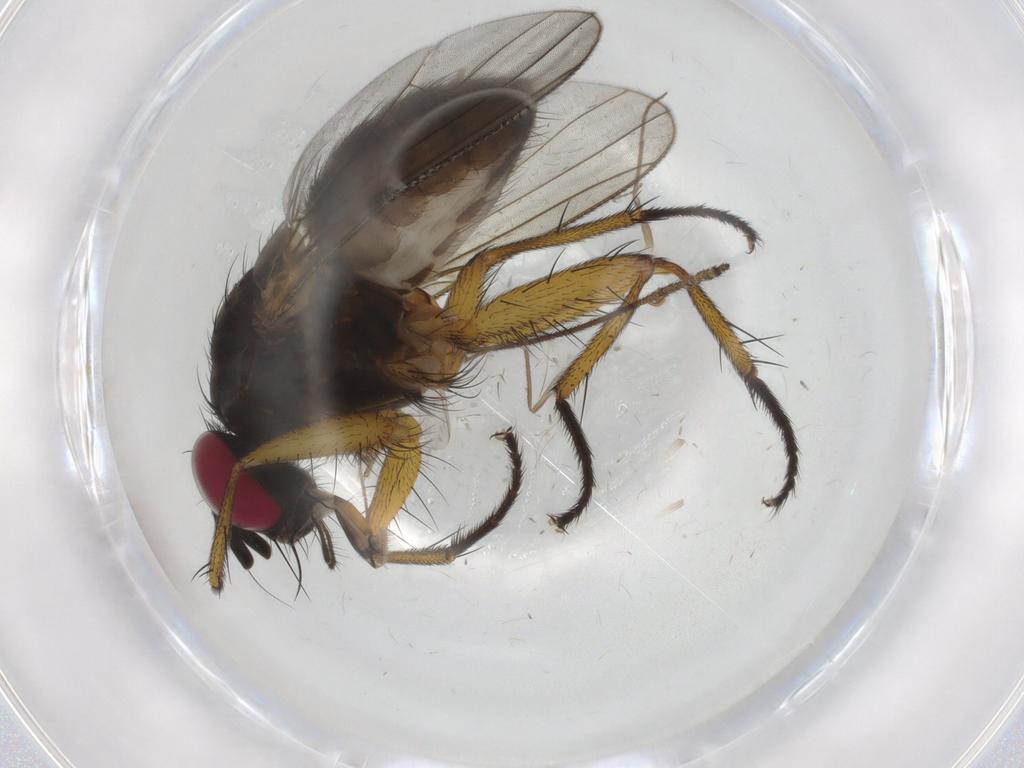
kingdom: Animalia
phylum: Arthropoda
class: Insecta
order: Diptera
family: Muscidae
